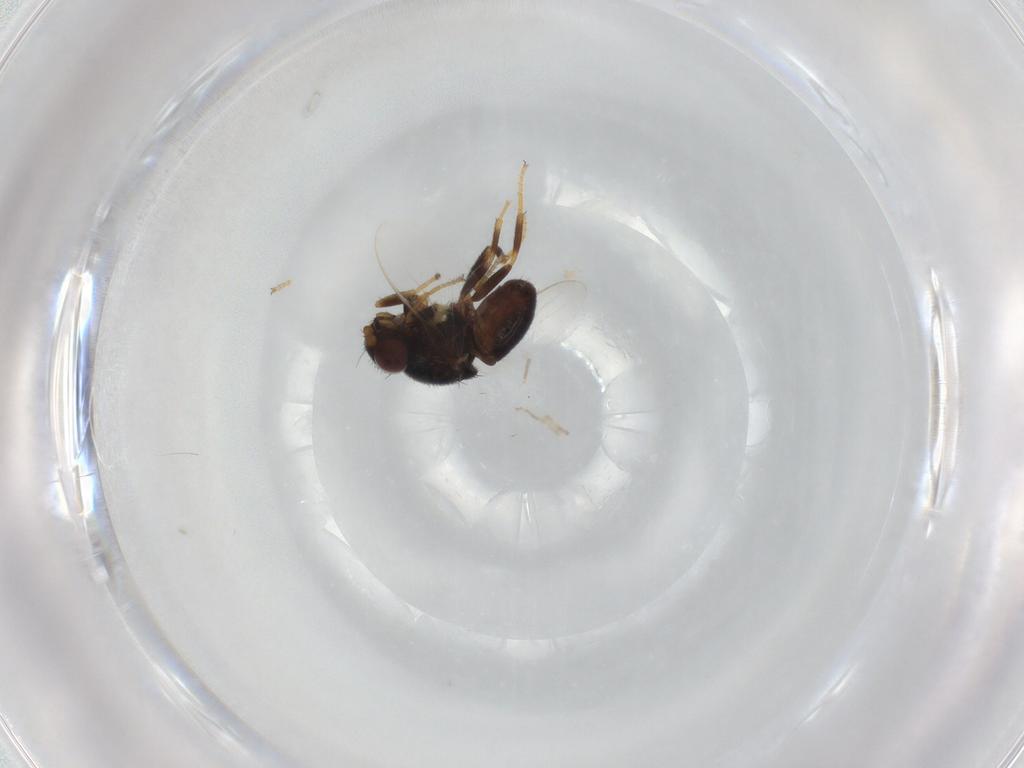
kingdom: Animalia
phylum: Arthropoda
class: Insecta
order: Diptera
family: Chloropidae
